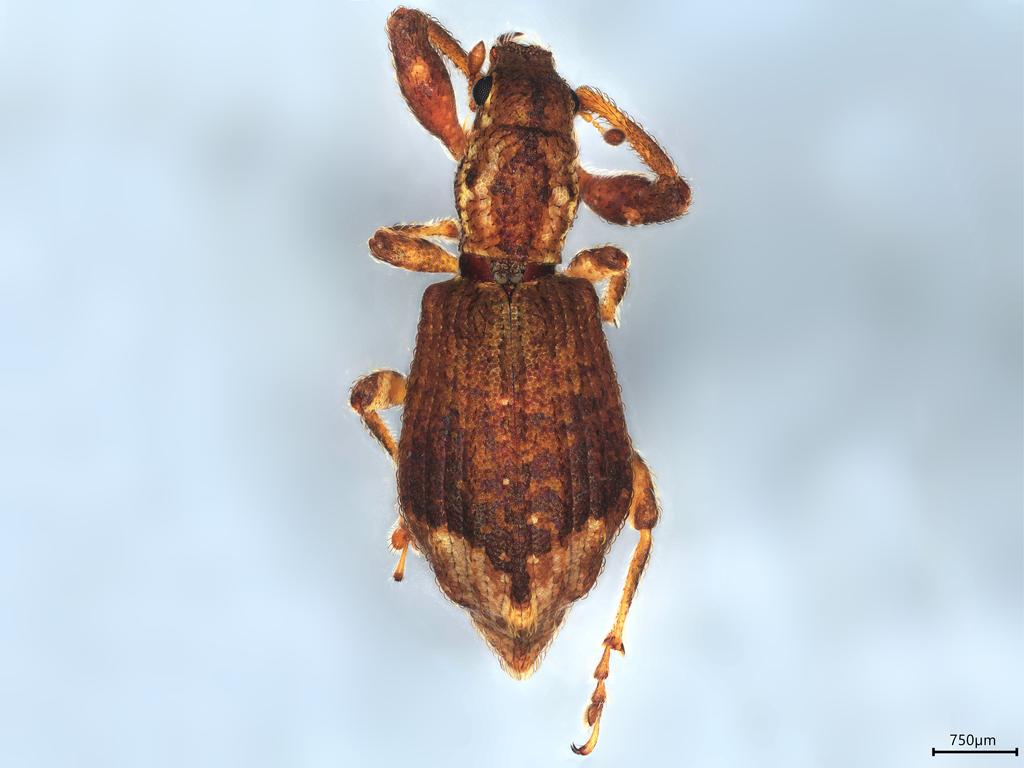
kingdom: Animalia
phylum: Arthropoda
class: Insecta
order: Coleoptera
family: Curculionidae
